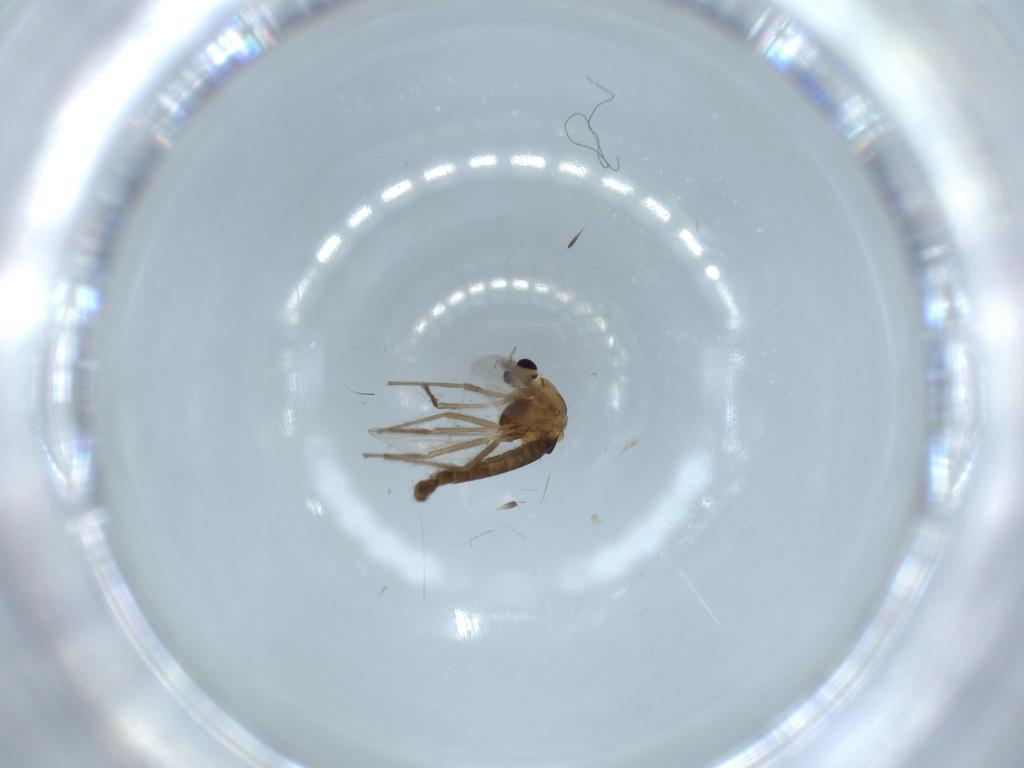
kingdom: Animalia
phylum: Arthropoda
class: Insecta
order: Diptera
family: Chironomidae
